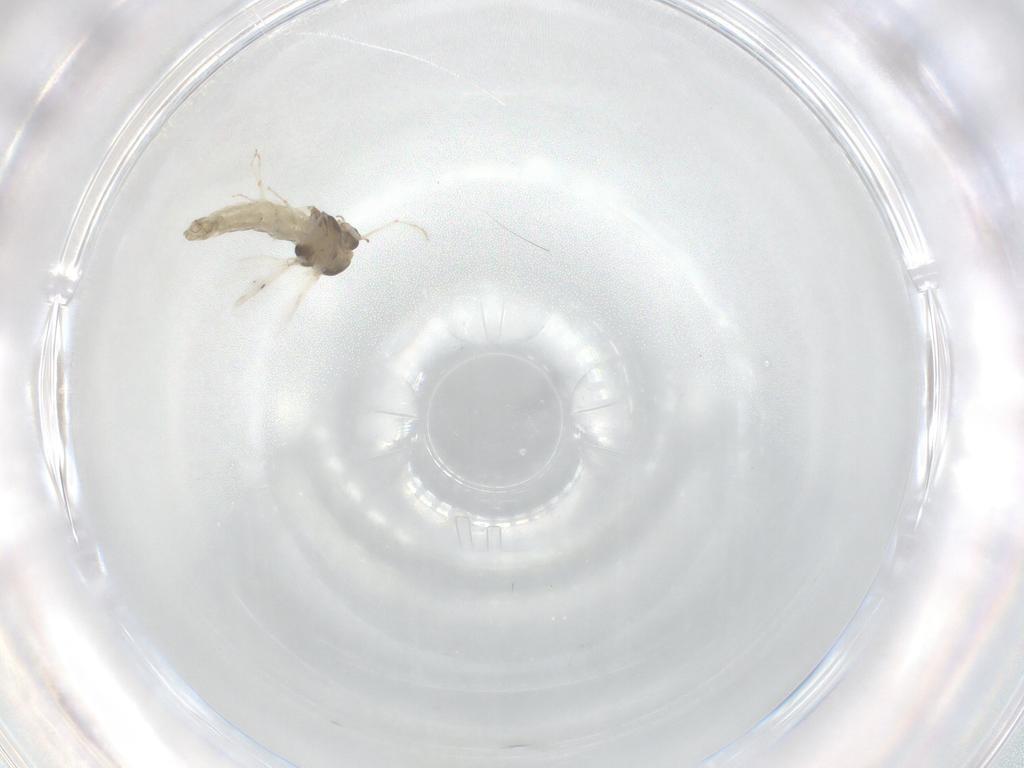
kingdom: Animalia
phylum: Arthropoda
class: Insecta
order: Diptera
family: Chironomidae
